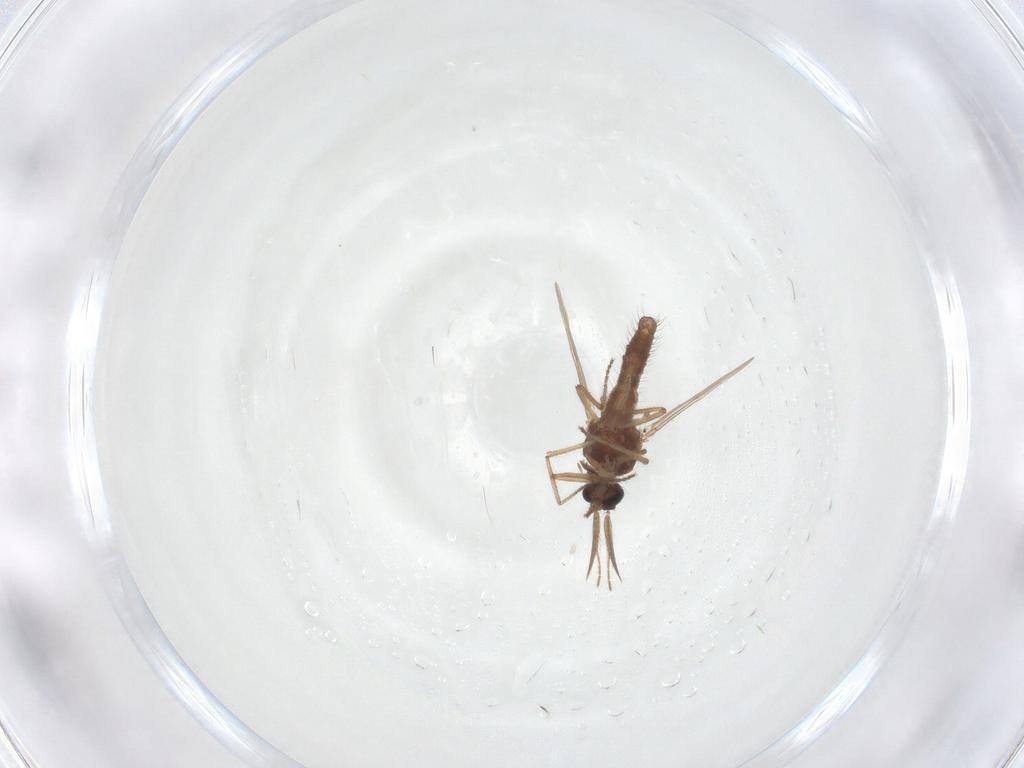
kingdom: Animalia
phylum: Arthropoda
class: Insecta
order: Diptera
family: Ceratopogonidae
